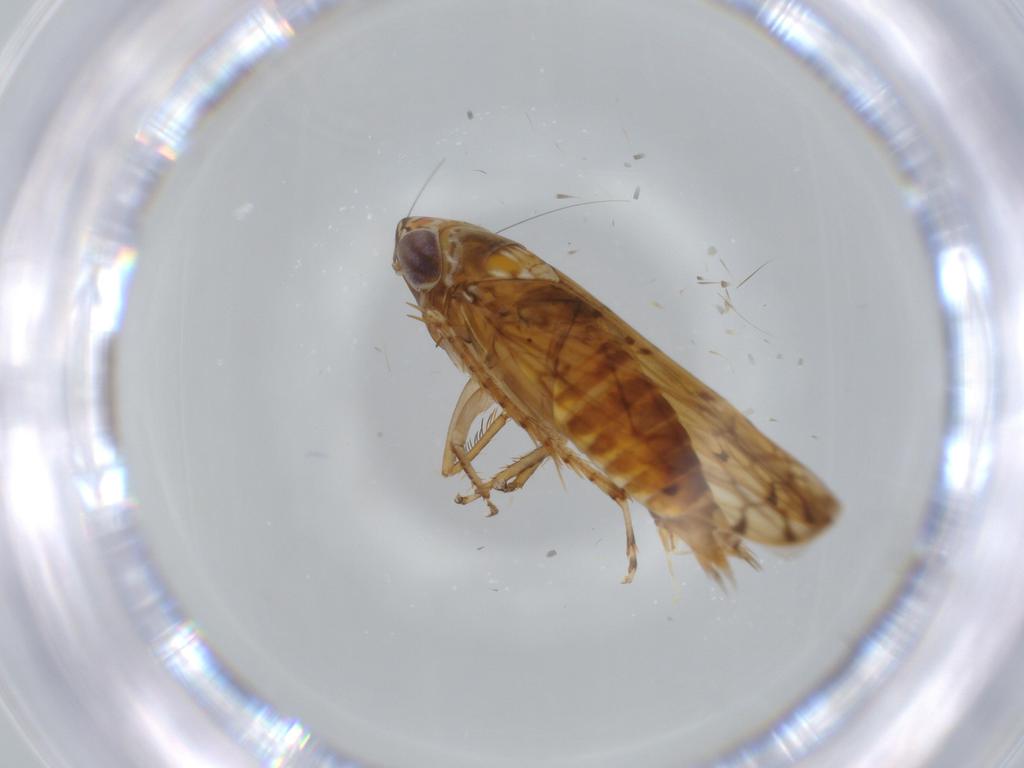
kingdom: Animalia
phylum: Arthropoda
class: Insecta
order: Hemiptera
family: Cicadellidae
